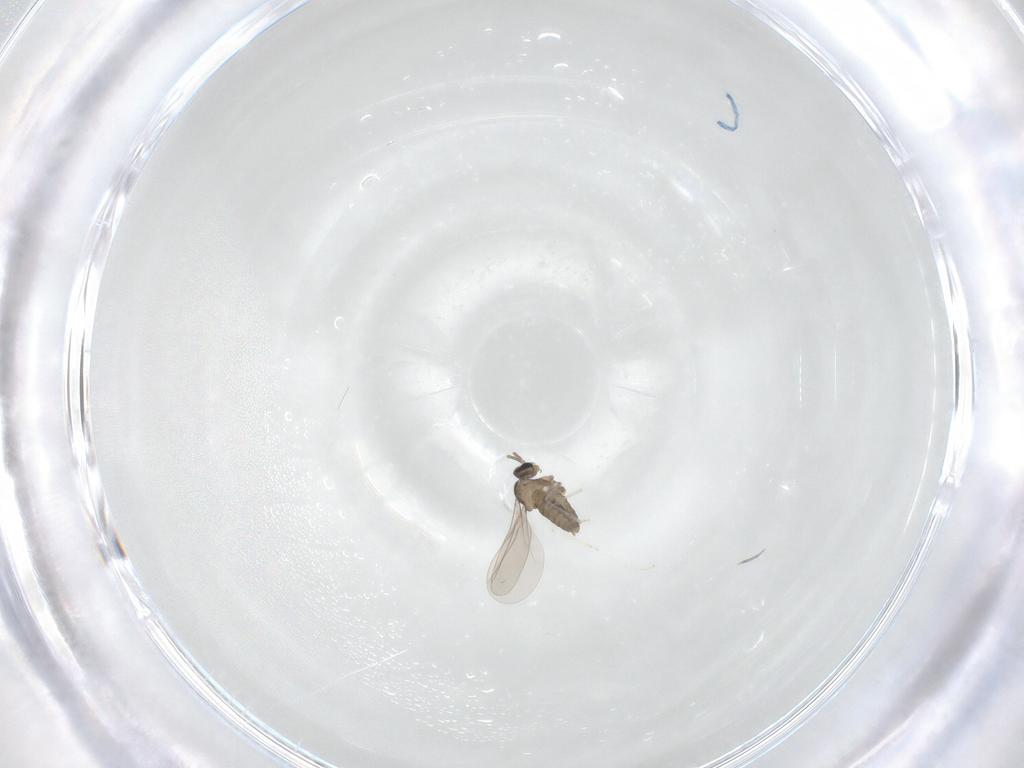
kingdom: Animalia
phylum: Arthropoda
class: Insecta
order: Diptera
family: Cecidomyiidae
